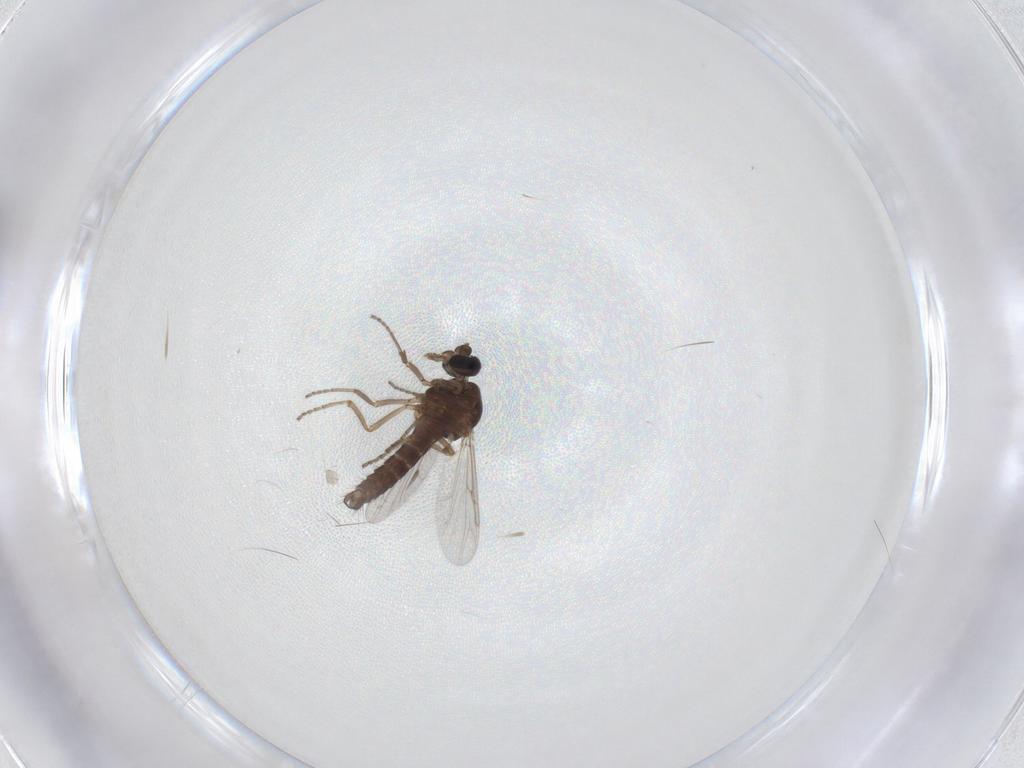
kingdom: Animalia
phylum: Arthropoda
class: Insecta
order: Diptera
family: Ceratopogonidae
